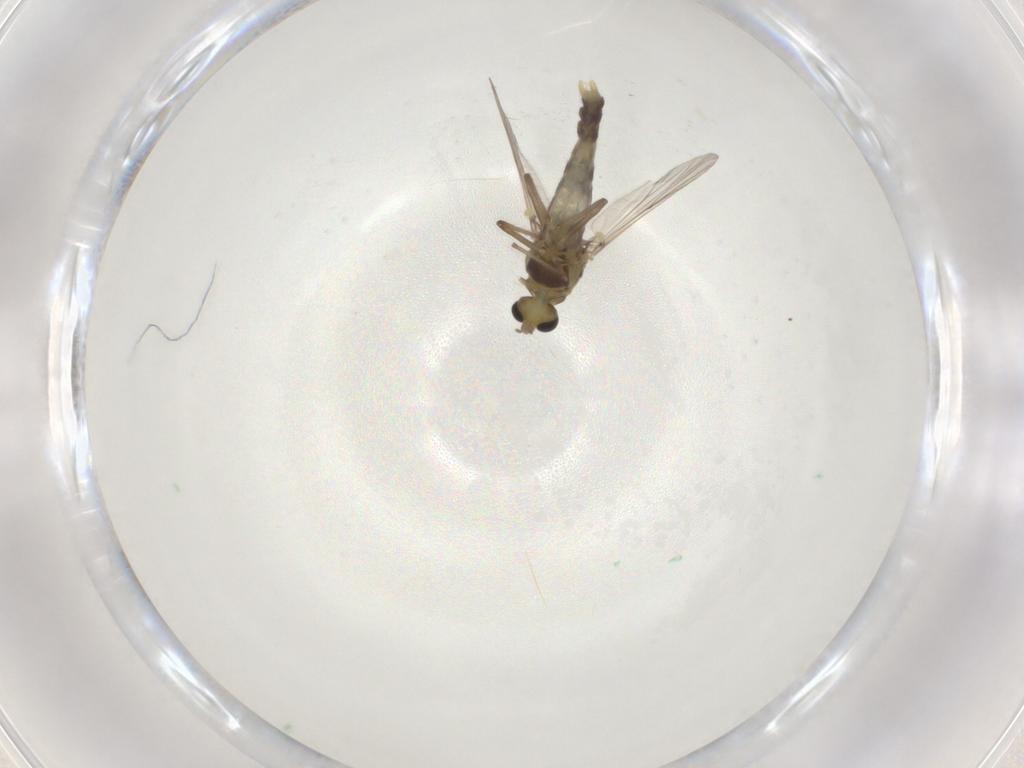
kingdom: Animalia
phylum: Arthropoda
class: Insecta
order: Diptera
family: Chironomidae
